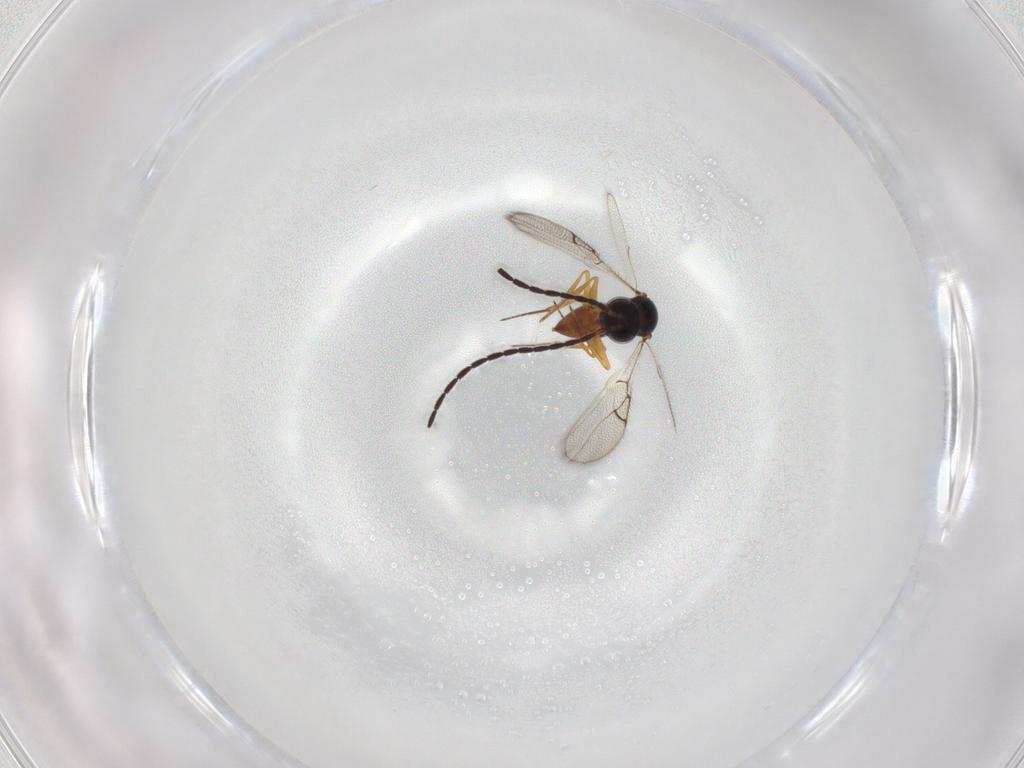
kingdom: Animalia
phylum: Arthropoda
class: Insecta
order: Hymenoptera
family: Figitidae
